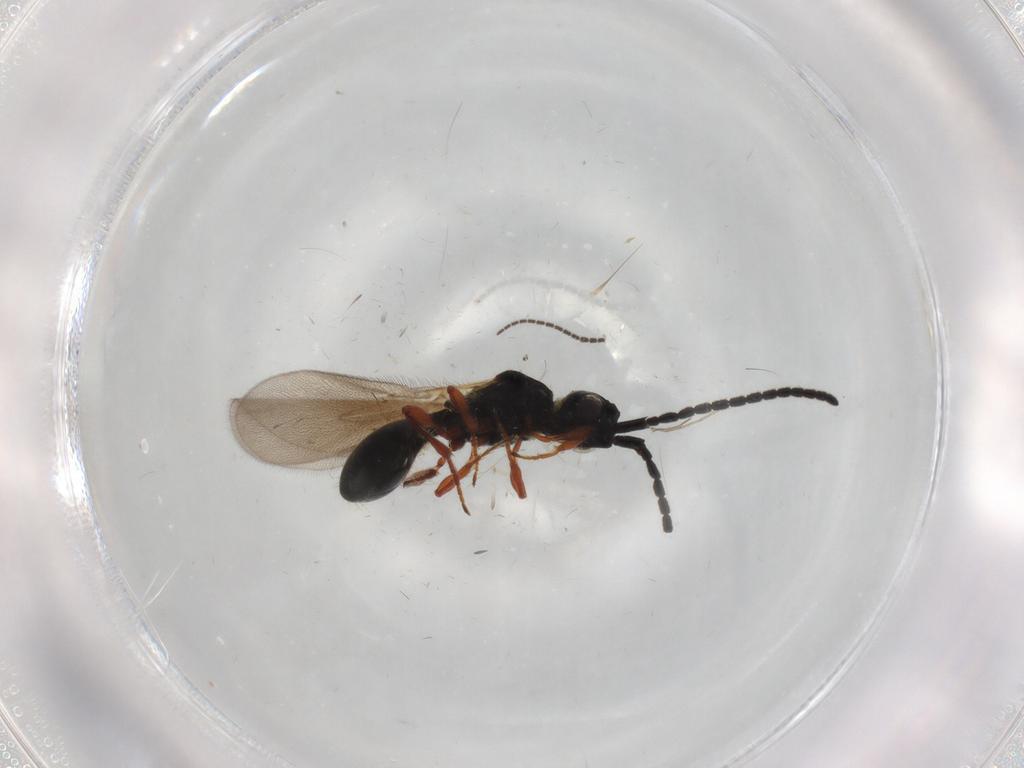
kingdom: Animalia
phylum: Arthropoda
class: Insecta
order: Hymenoptera
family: Diapriidae
